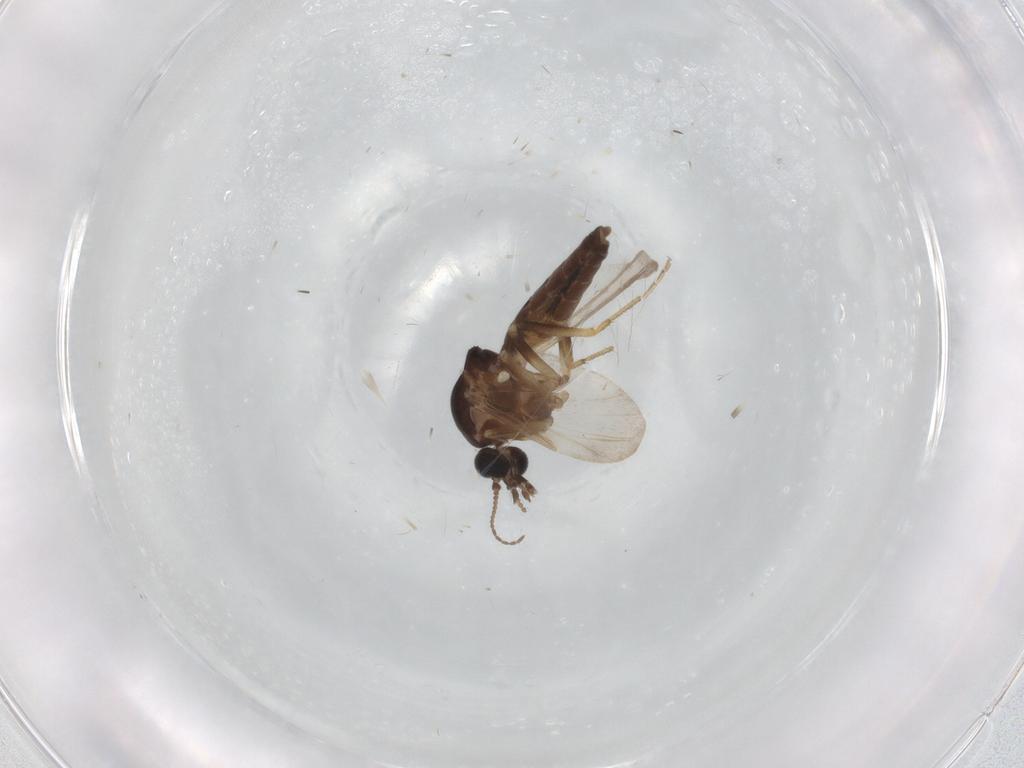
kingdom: Animalia
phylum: Arthropoda
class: Insecta
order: Diptera
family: Ceratopogonidae
